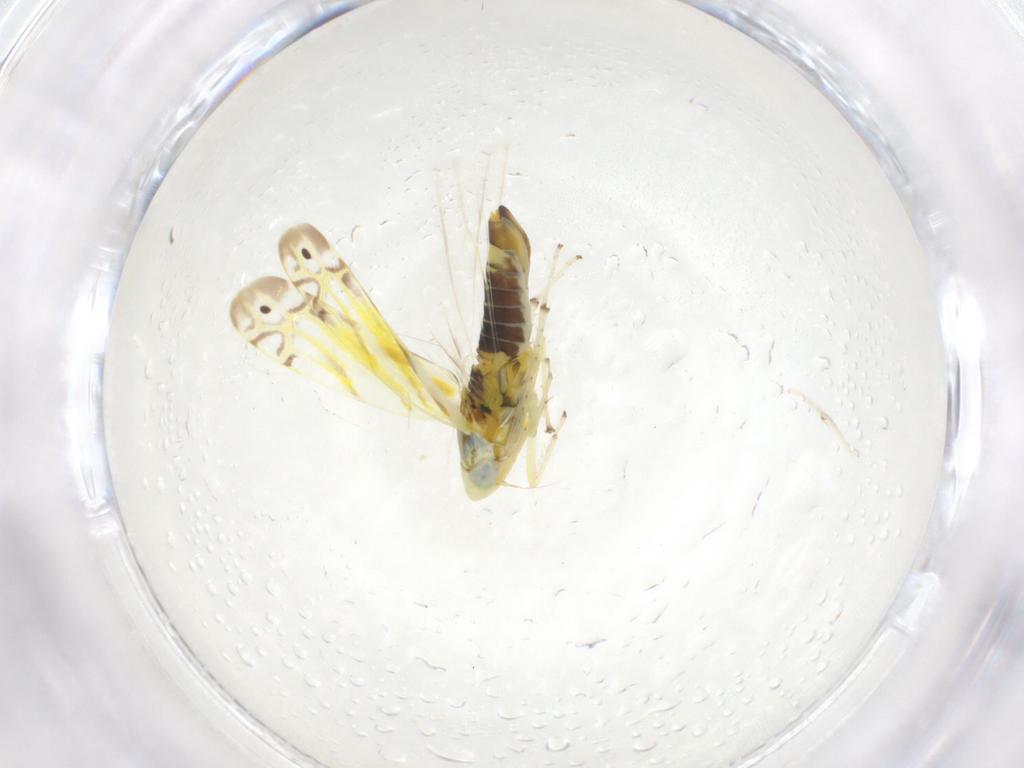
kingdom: Animalia
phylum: Arthropoda
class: Insecta
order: Hemiptera
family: Cicadellidae
